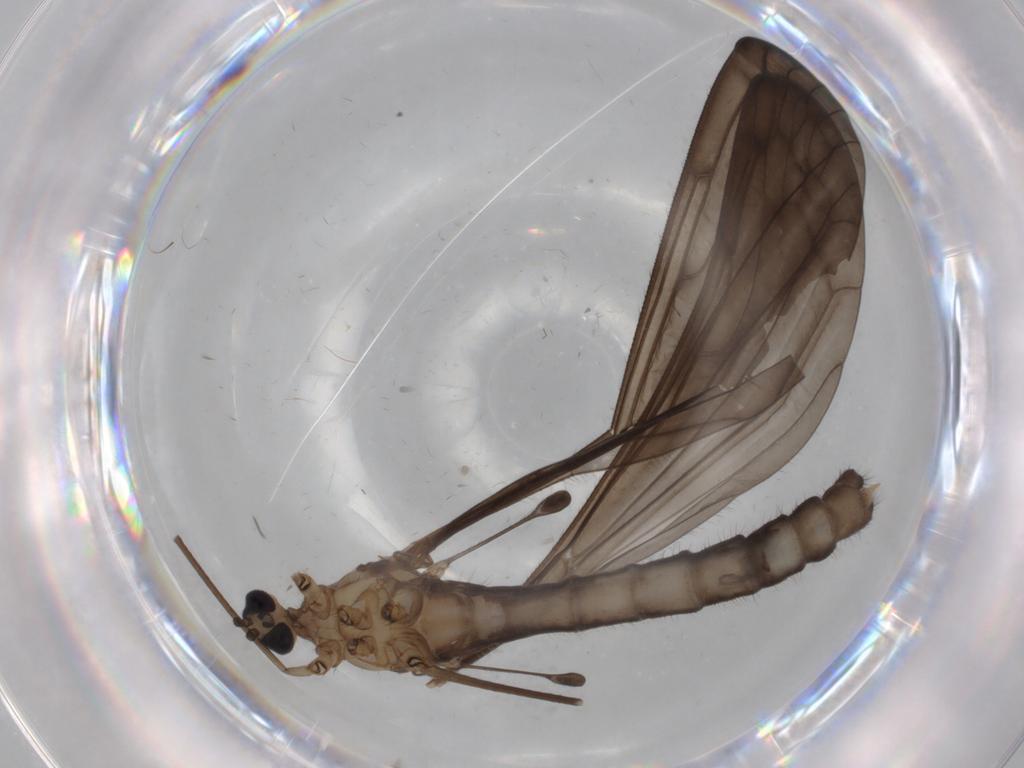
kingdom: Animalia
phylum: Arthropoda
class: Insecta
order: Diptera
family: Limoniidae
